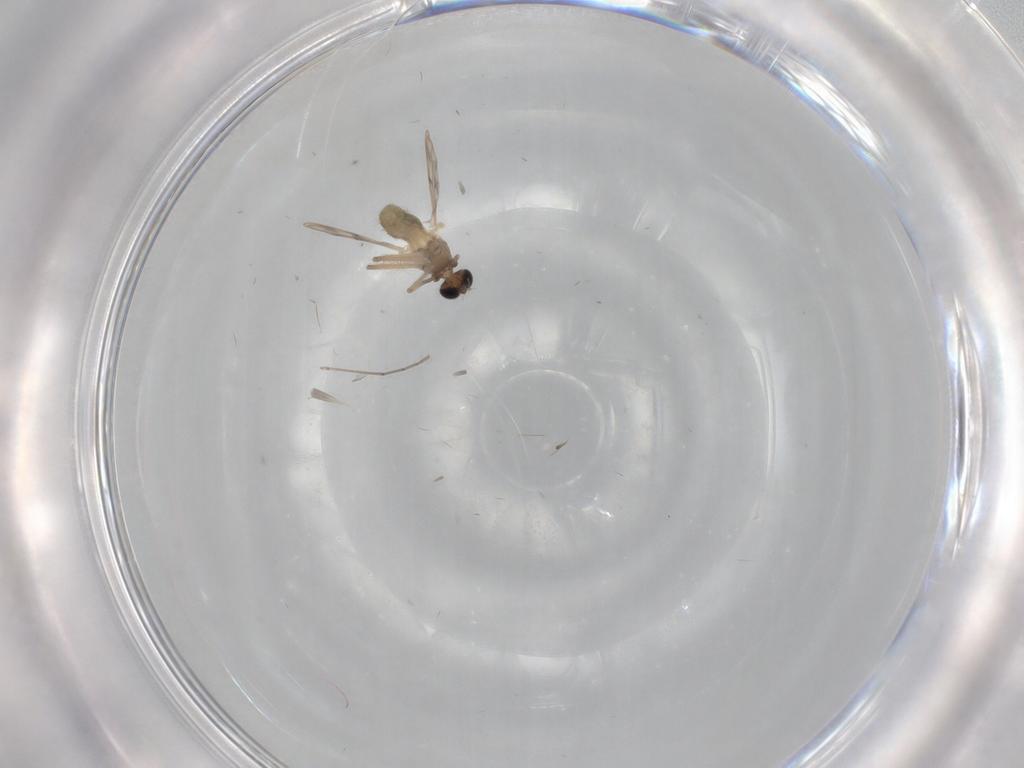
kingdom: Animalia
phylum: Arthropoda
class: Insecta
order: Diptera
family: Chironomidae
